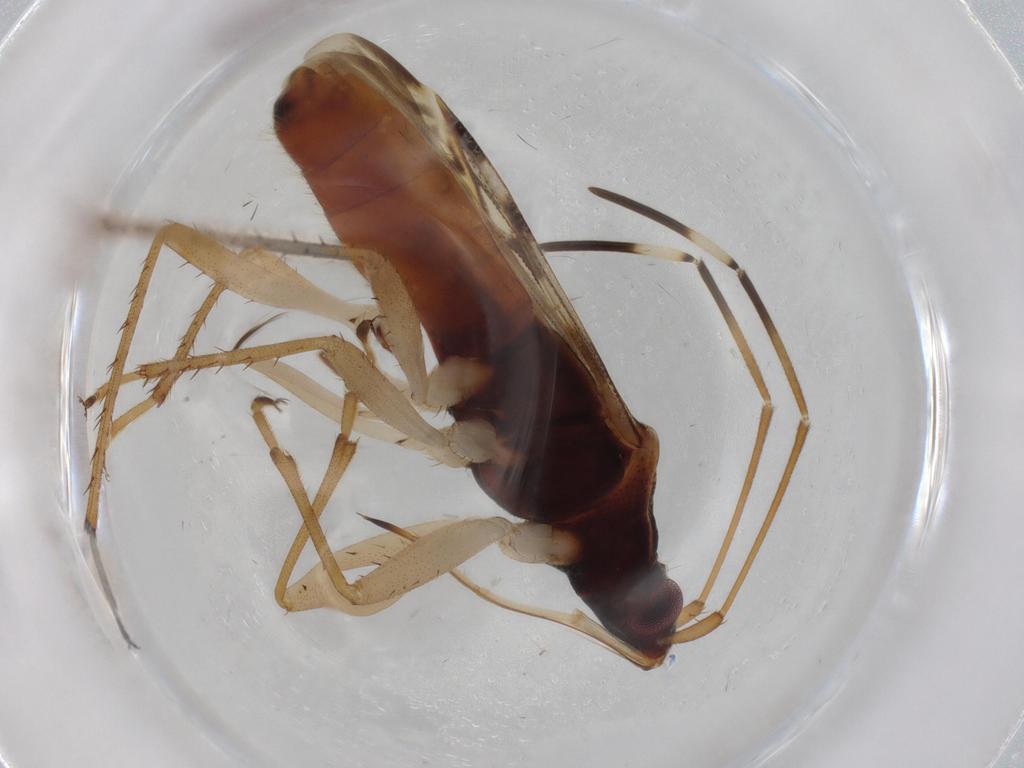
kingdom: Animalia
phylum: Arthropoda
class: Insecta
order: Hemiptera
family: Rhyparochromidae
